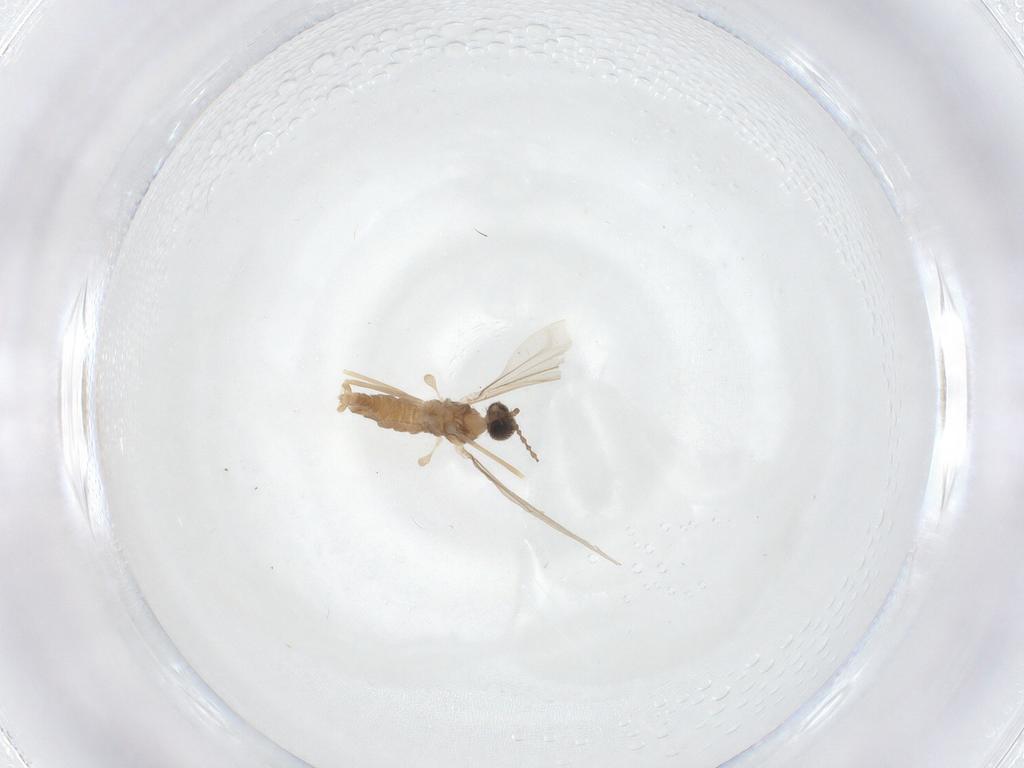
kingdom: Animalia
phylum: Arthropoda
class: Insecta
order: Diptera
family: Cecidomyiidae
